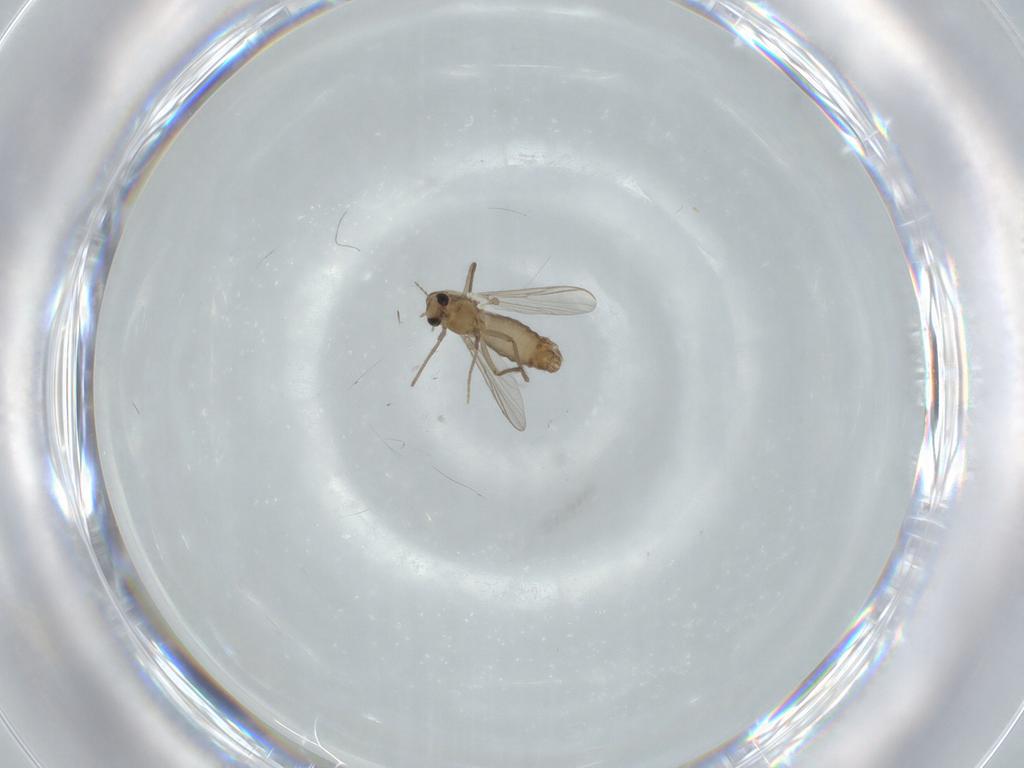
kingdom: Animalia
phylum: Arthropoda
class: Insecta
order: Diptera
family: Chironomidae
